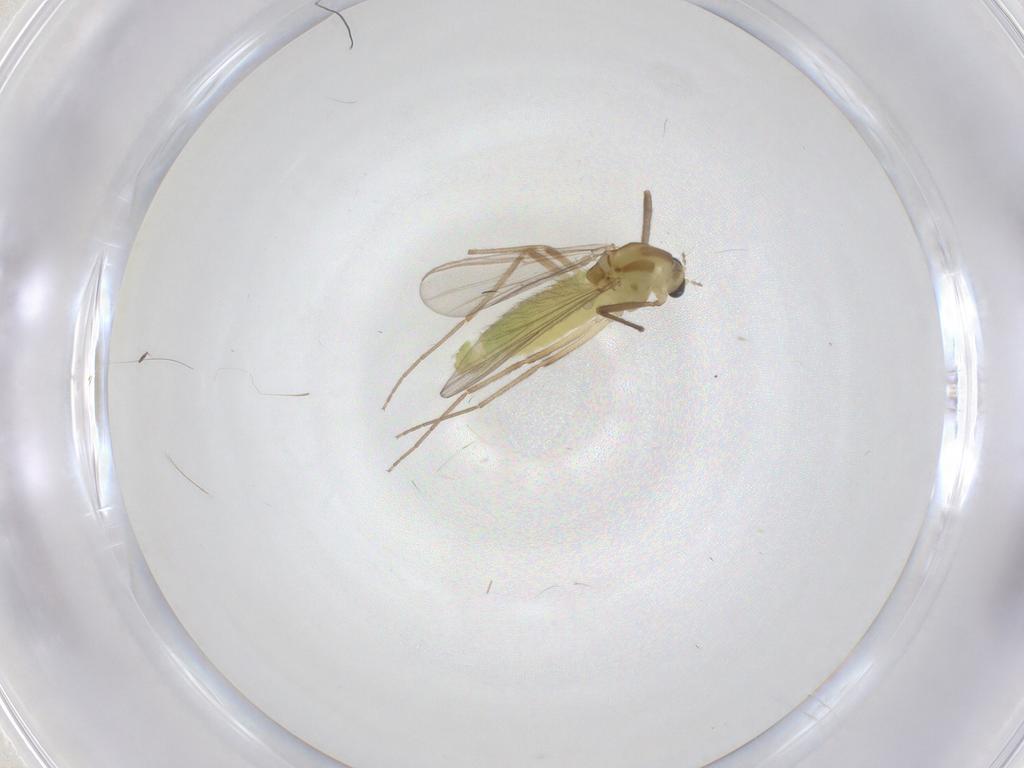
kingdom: Animalia
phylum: Arthropoda
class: Insecta
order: Diptera
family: Chironomidae
